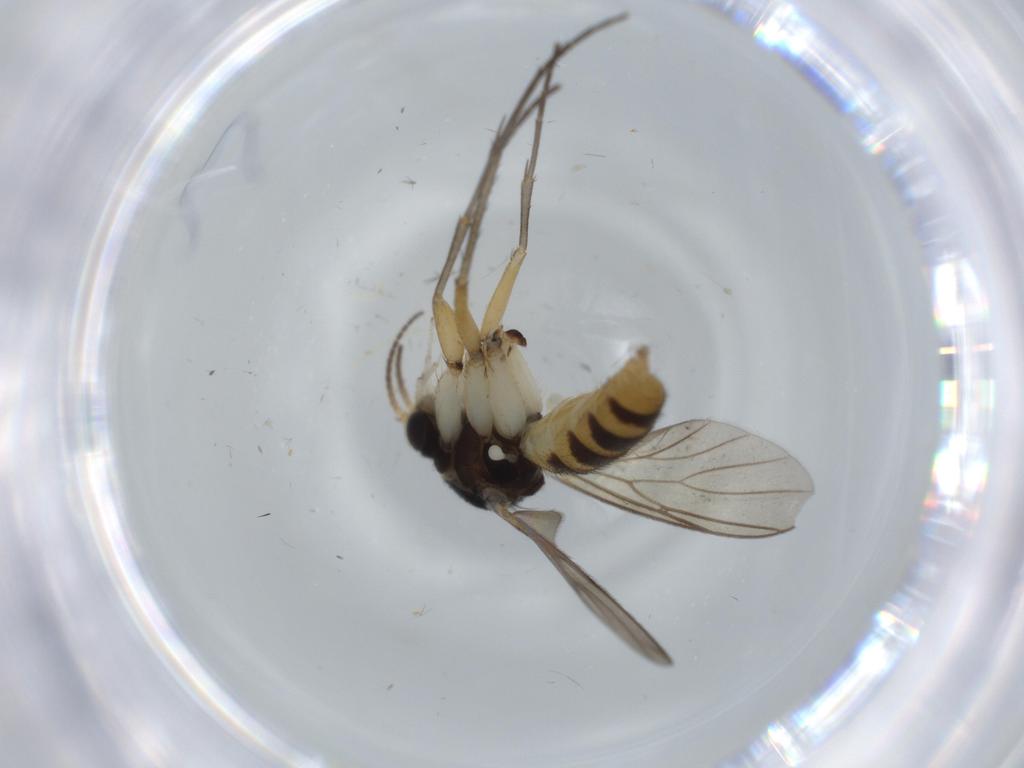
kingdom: Animalia
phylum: Arthropoda
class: Insecta
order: Diptera
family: Mycetophilidae
